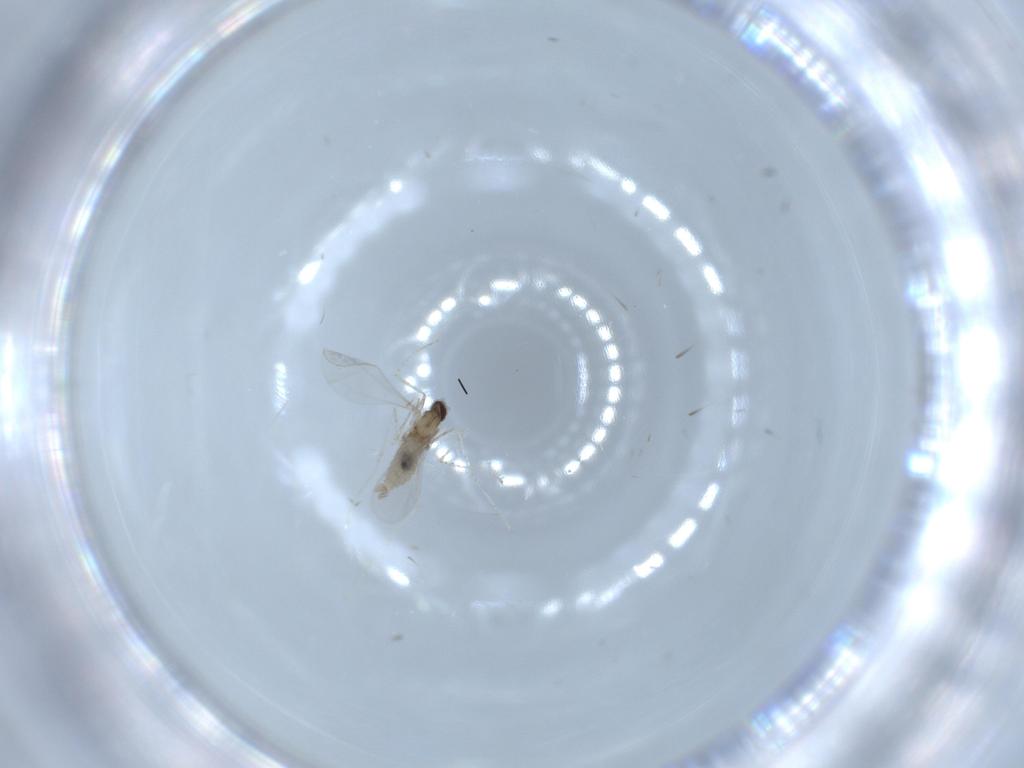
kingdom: Animalia
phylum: Arthropoda
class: Insecta
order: Diptera
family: Cecidomyiidae
